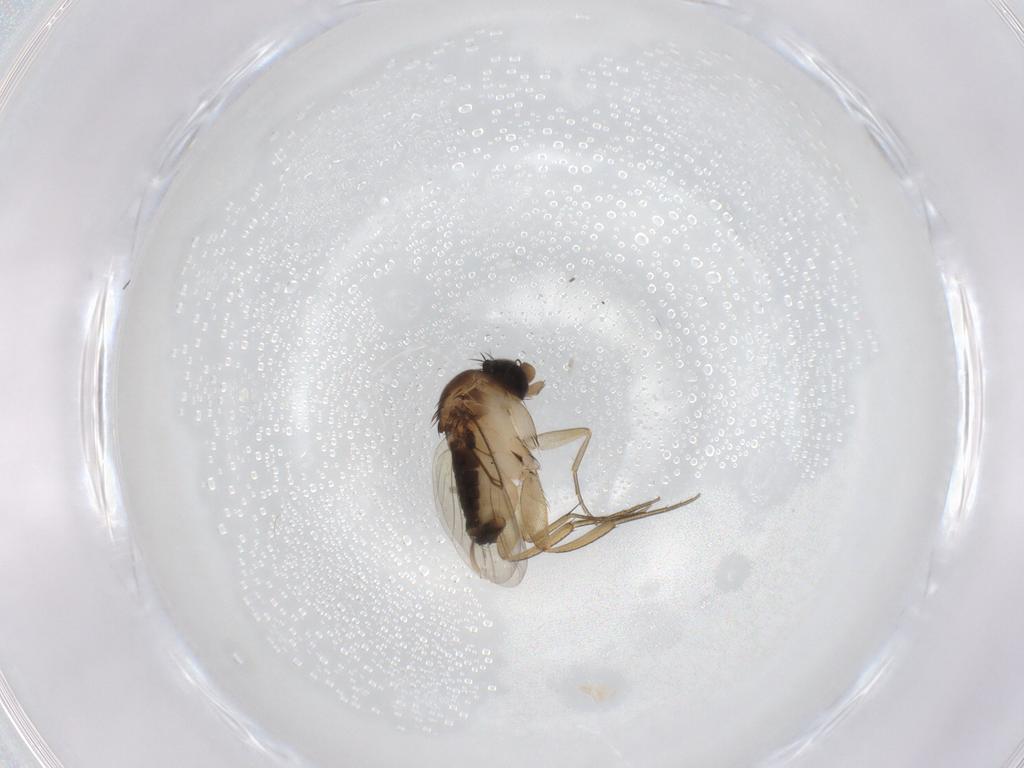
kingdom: Animalia
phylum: Arthropoda
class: Insecta
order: Diptera
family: Phoridae
